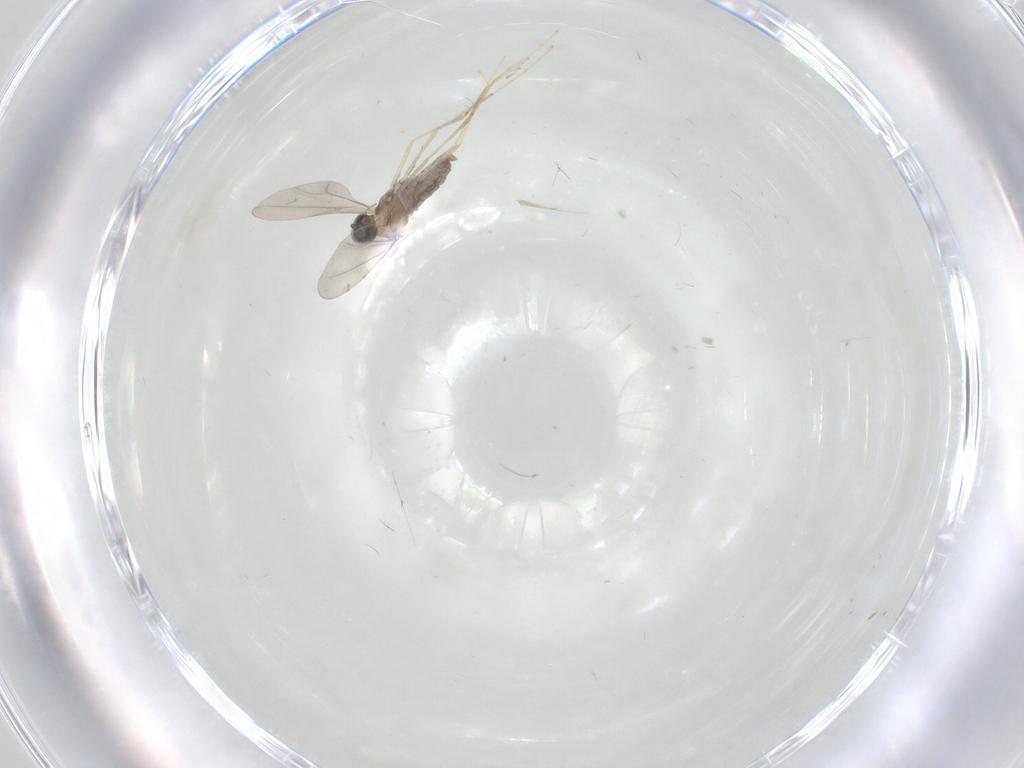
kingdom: Animalia
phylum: Arthropoda
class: Insecta
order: Diptera
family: Cecidomyiidae
